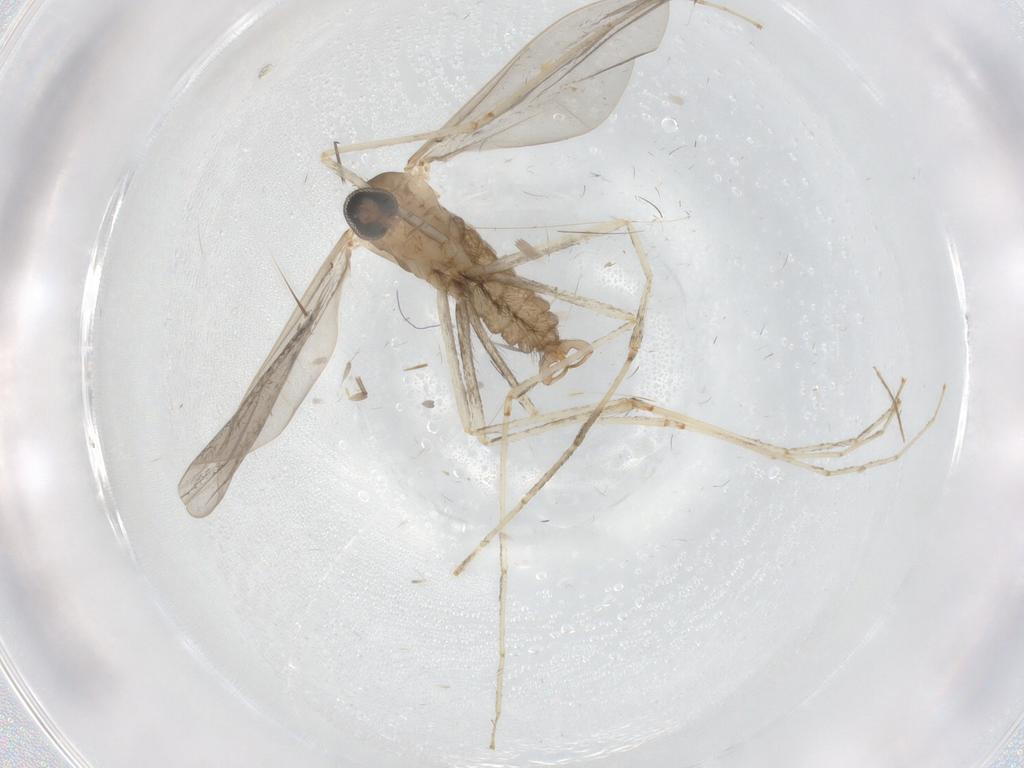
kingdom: Animalia
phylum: Arthropoda
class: Insecta
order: Diptera
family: Cecidomyiidae
